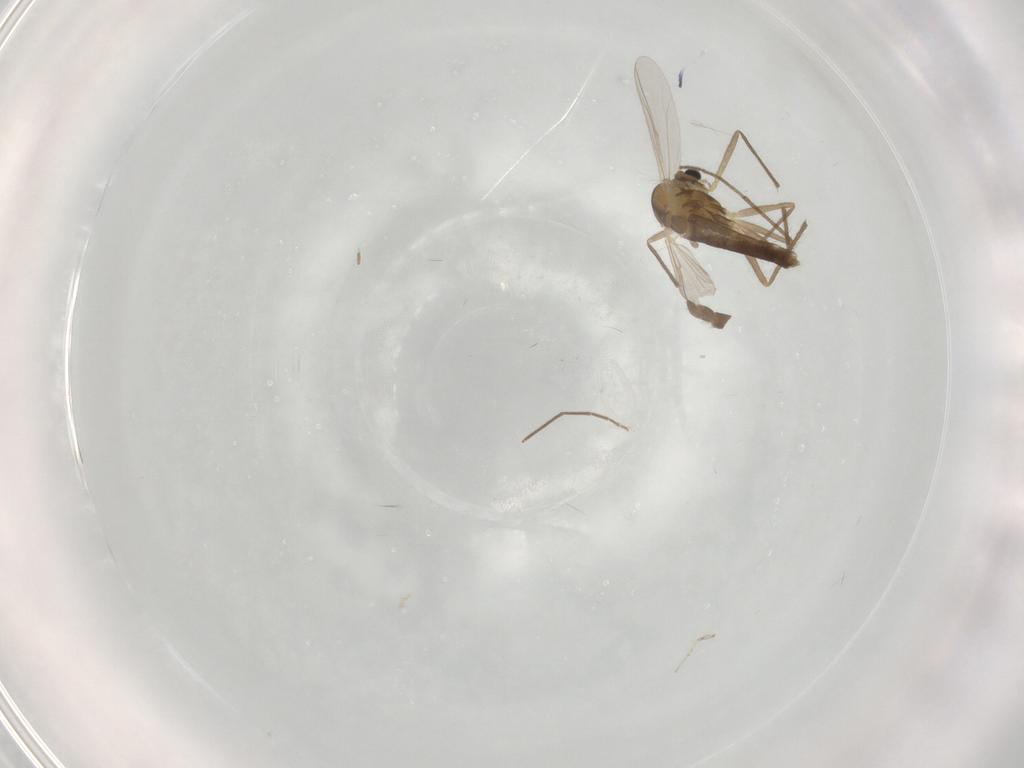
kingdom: Animalia
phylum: Arthropoda
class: Insecta
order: Diptera
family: Chironomidae
